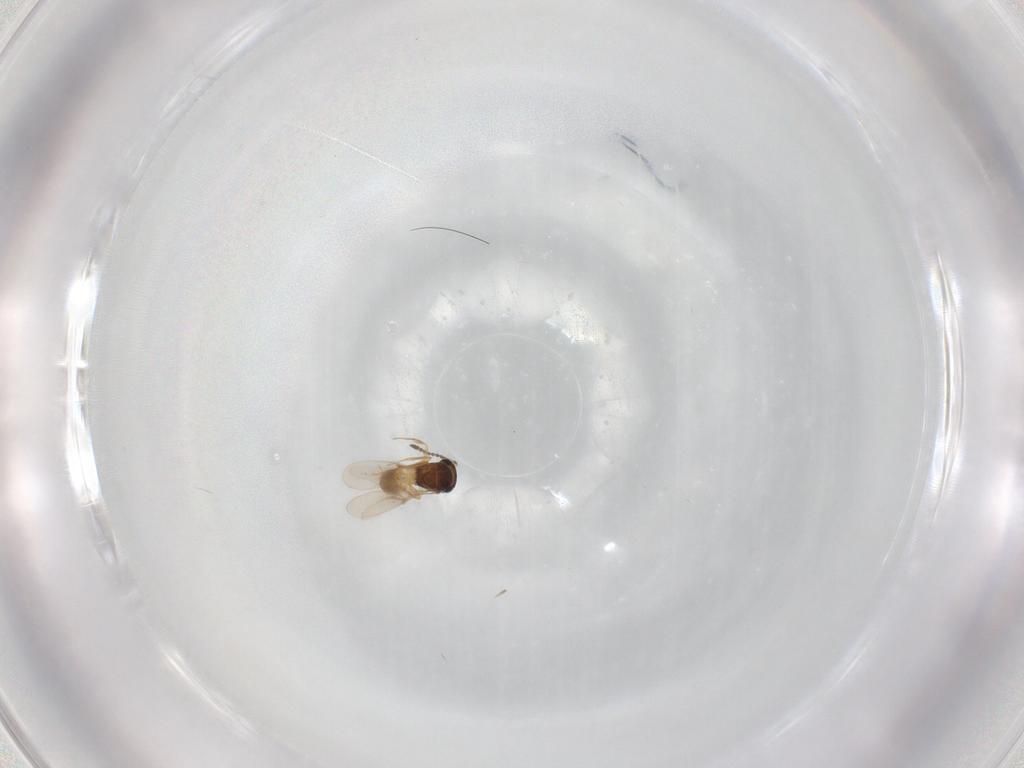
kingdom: Animalia
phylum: Arthropoda
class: Insecta
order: Hymenoptera
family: Scelionidae
